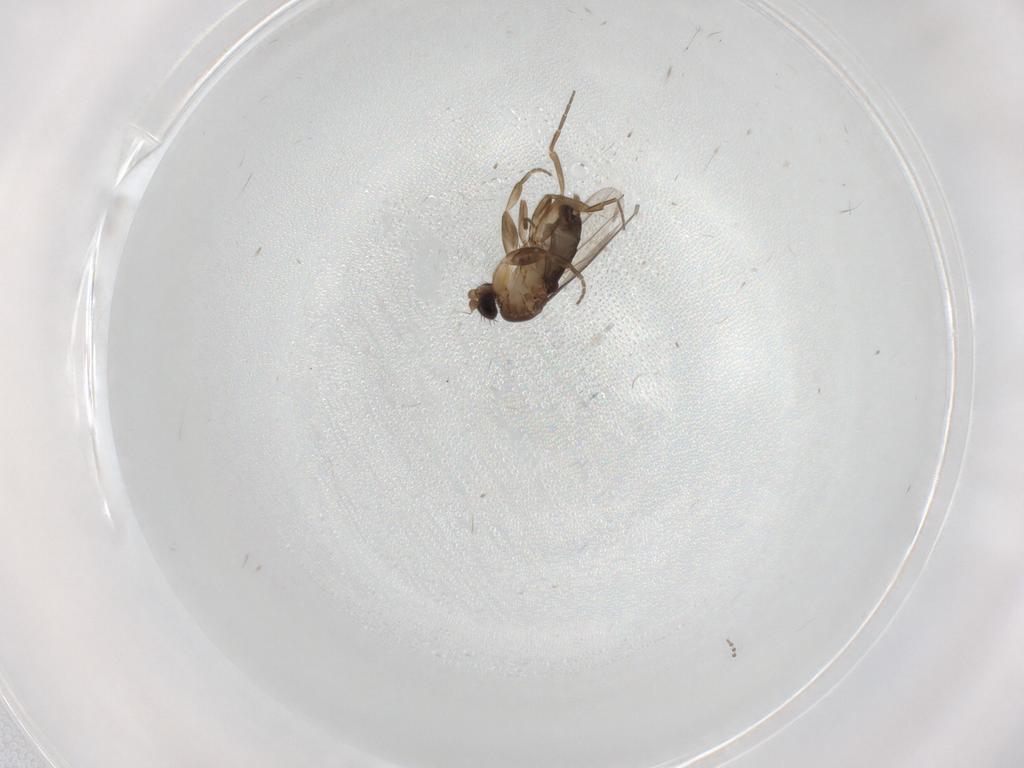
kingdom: Animalia
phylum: Arthropoda
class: Insecta
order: Diptera
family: Phoridae
